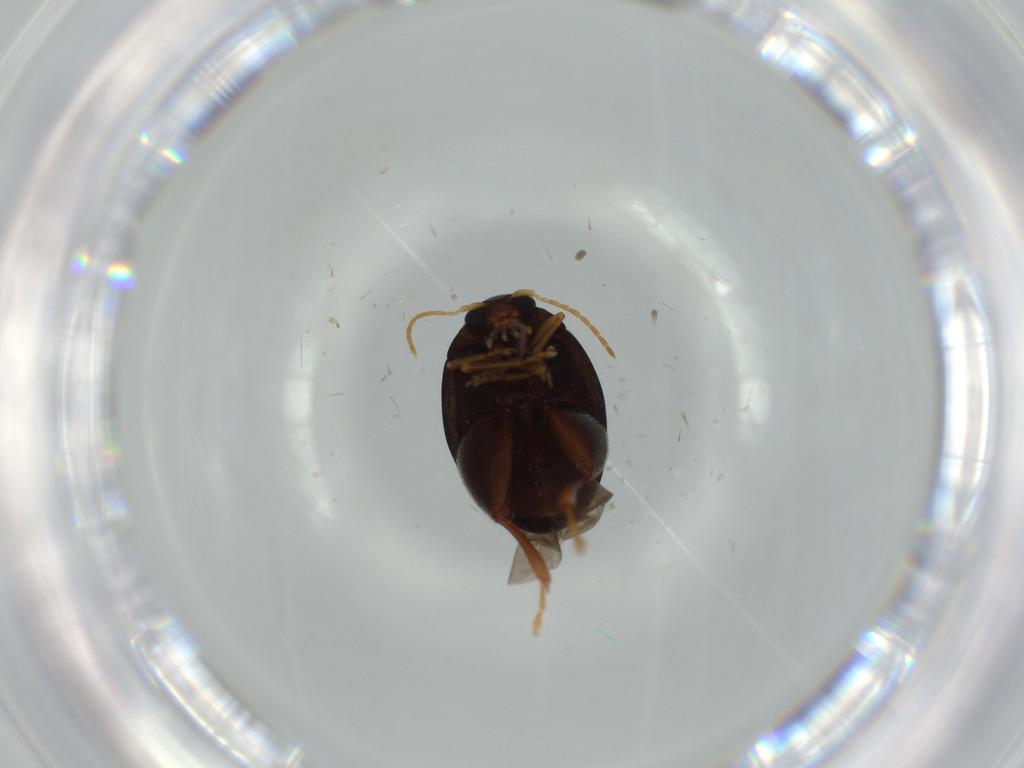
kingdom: Animalia
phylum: Arthropoda
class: Insecta
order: Coleoptera
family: Chrysomelidae
